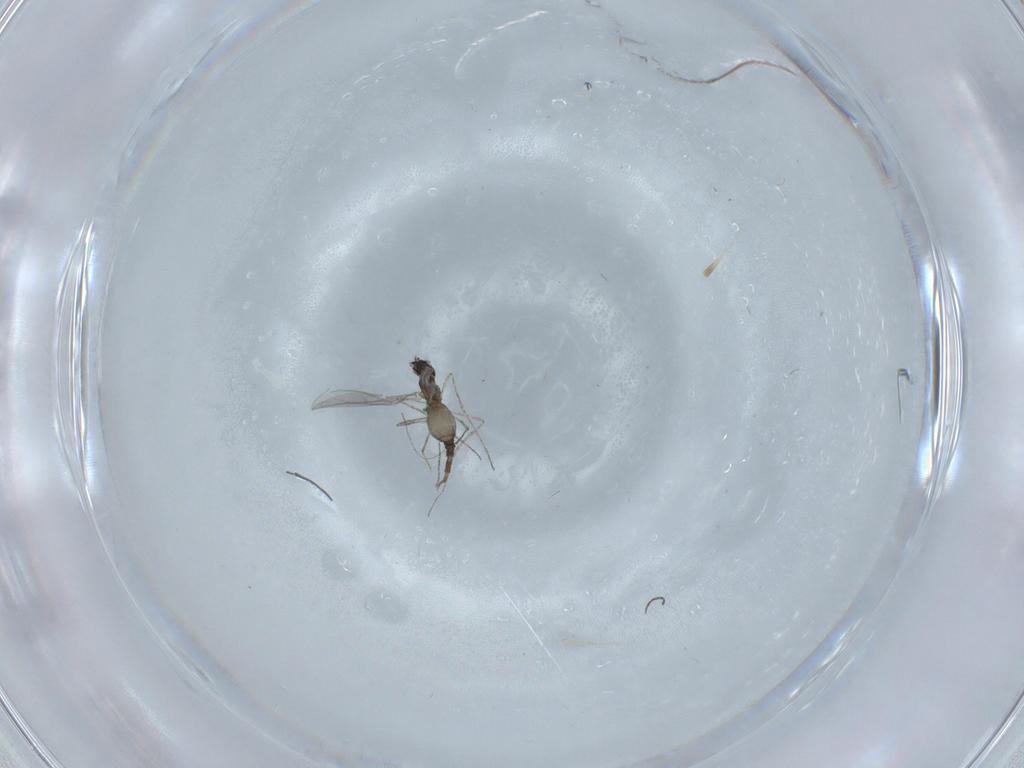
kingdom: Animalia
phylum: Arthropoda
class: Insecta
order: Diptera
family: Cecidomyiidae
